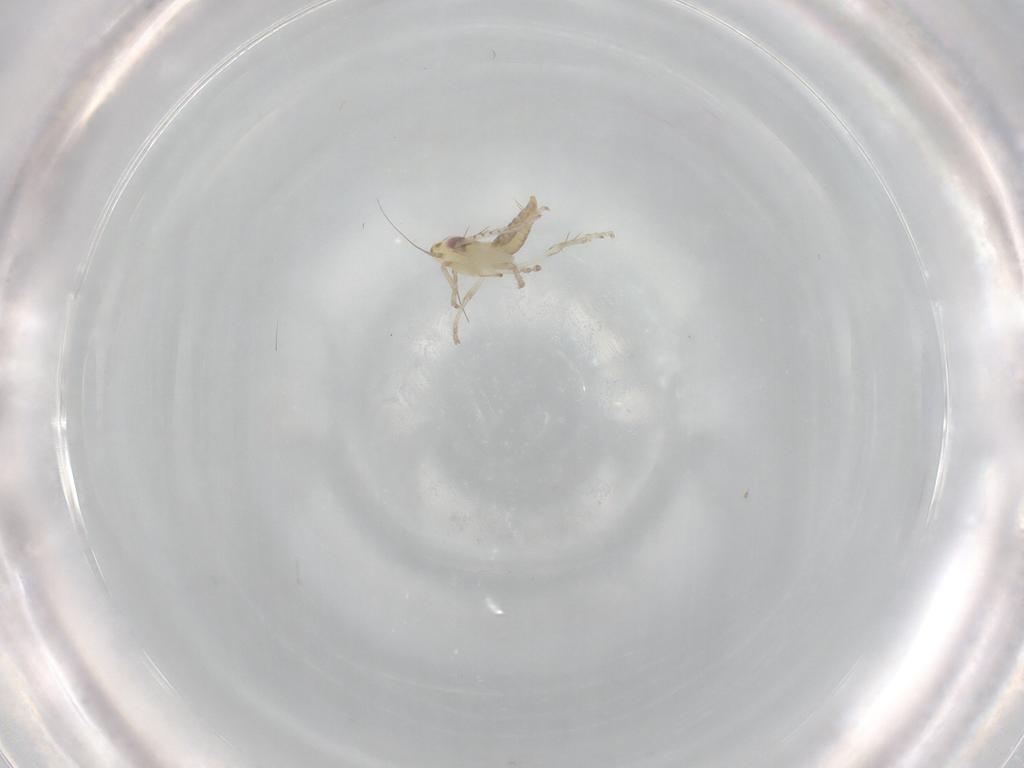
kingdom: Animalia
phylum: Arthropoda
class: Insecta
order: Hemiptera
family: Cicadellidae
